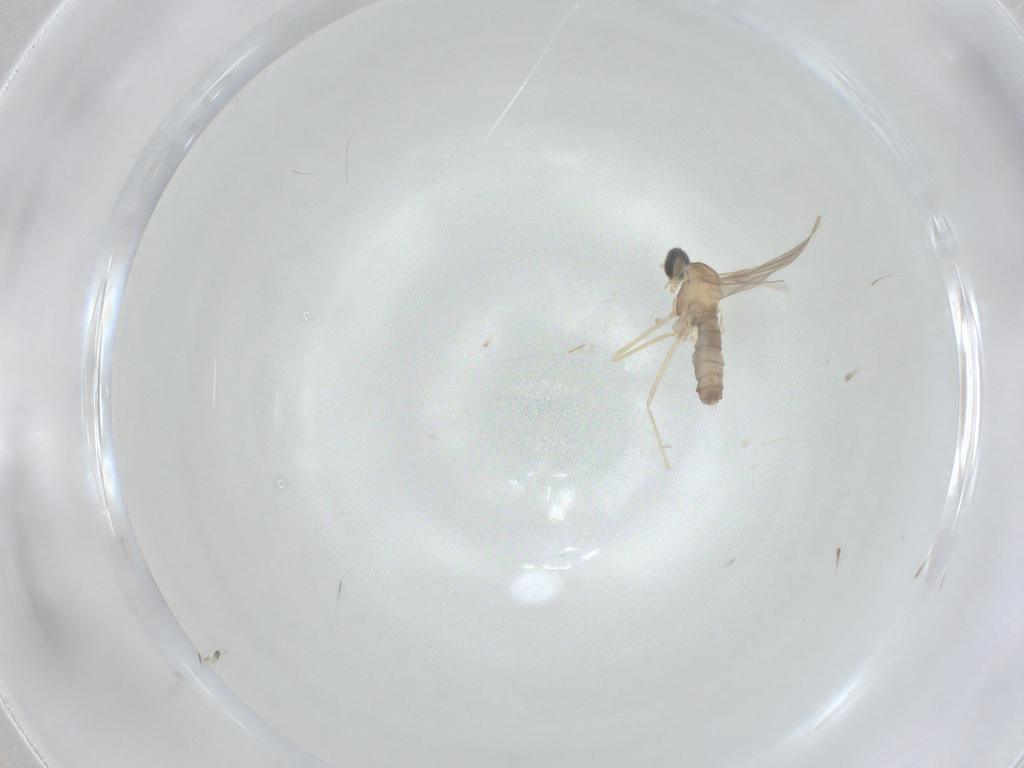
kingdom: Animalia
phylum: Arthropoda
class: Insecta
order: Diptera
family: Cecidomyiidae
